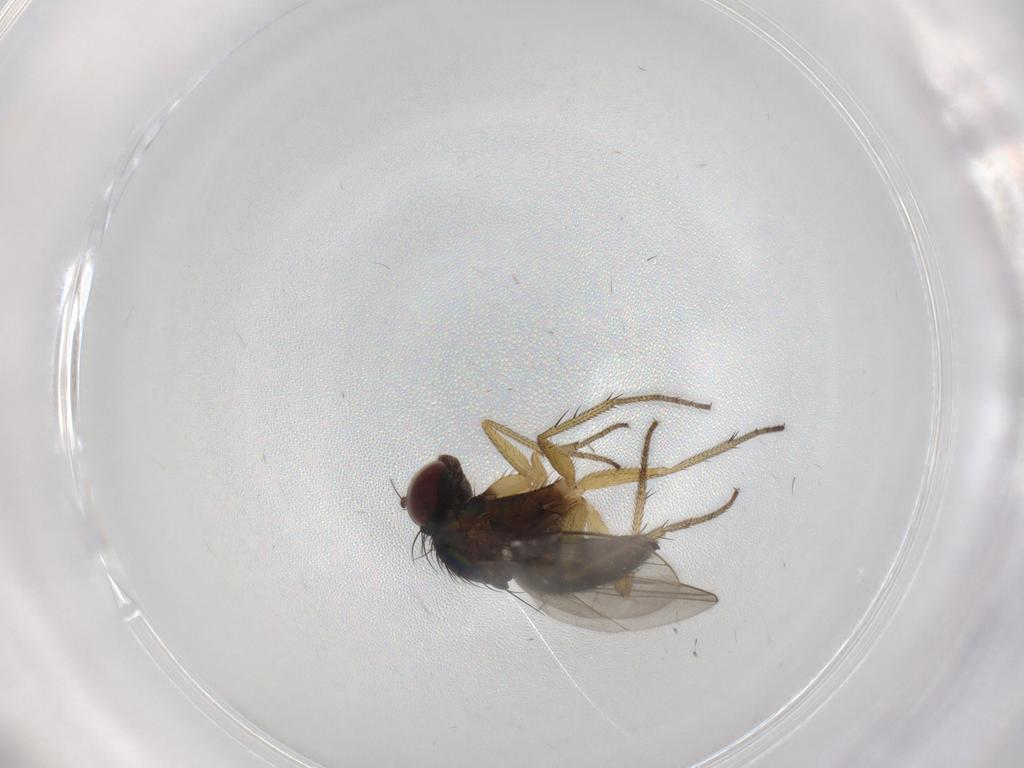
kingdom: Animalia
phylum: Arthropoda
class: Insecta
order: Diptera
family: Dolichopodidae
